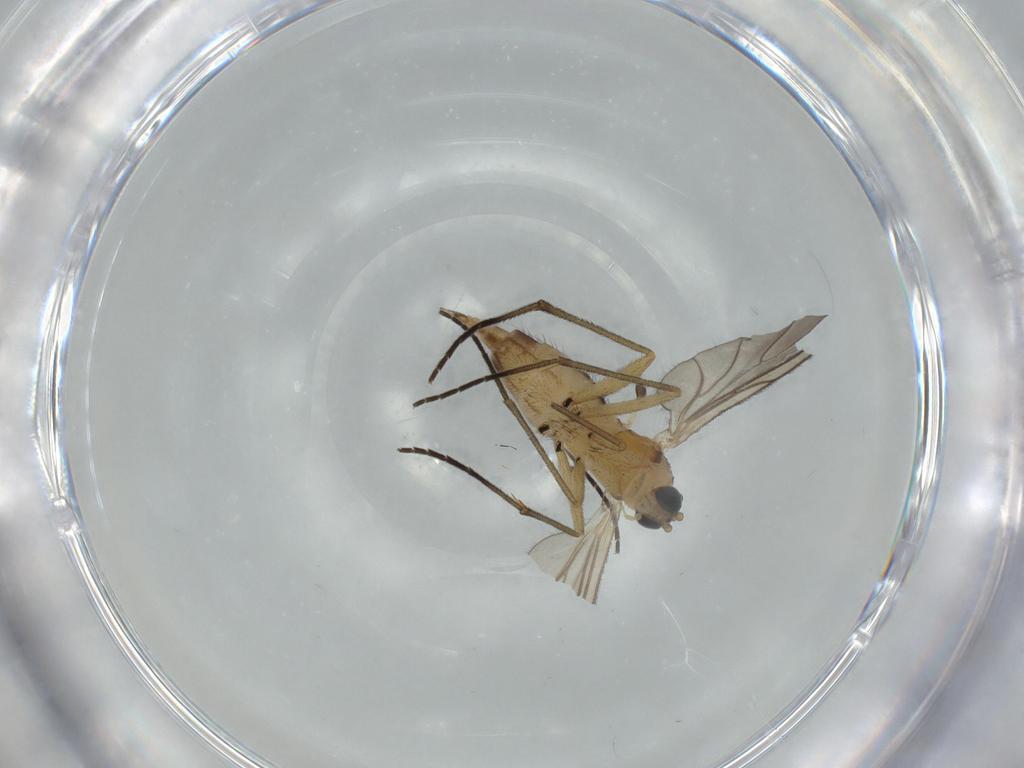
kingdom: Animalia
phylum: Arthropoda
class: Insecta
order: Diptera
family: Sciaridae
